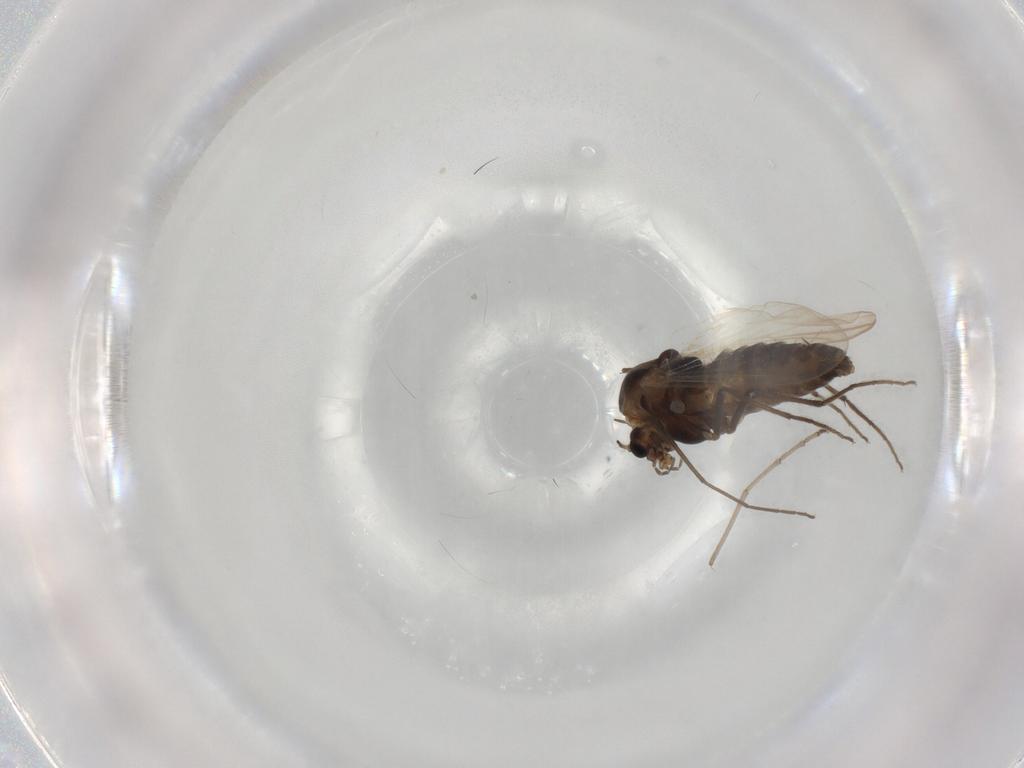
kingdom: Animalia
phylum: Arthropoda
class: Insecta
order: Diptera
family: Chironomidae
